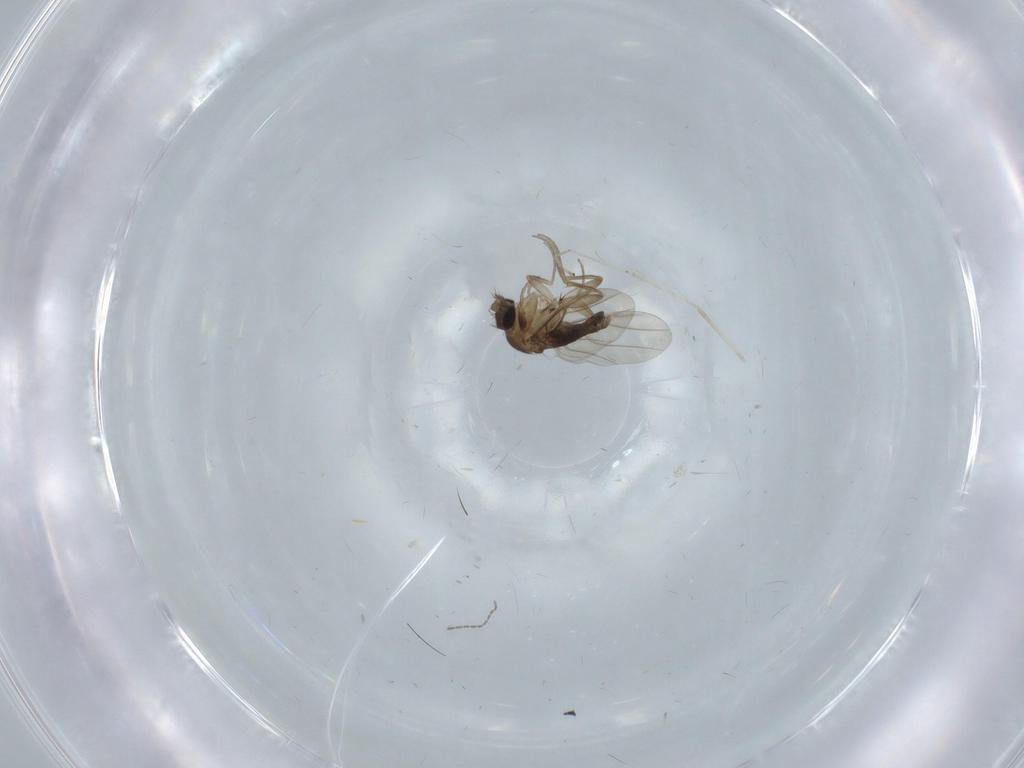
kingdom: Animalia
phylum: Arthropoda
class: Insecta
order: Diptera
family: Phoridae
